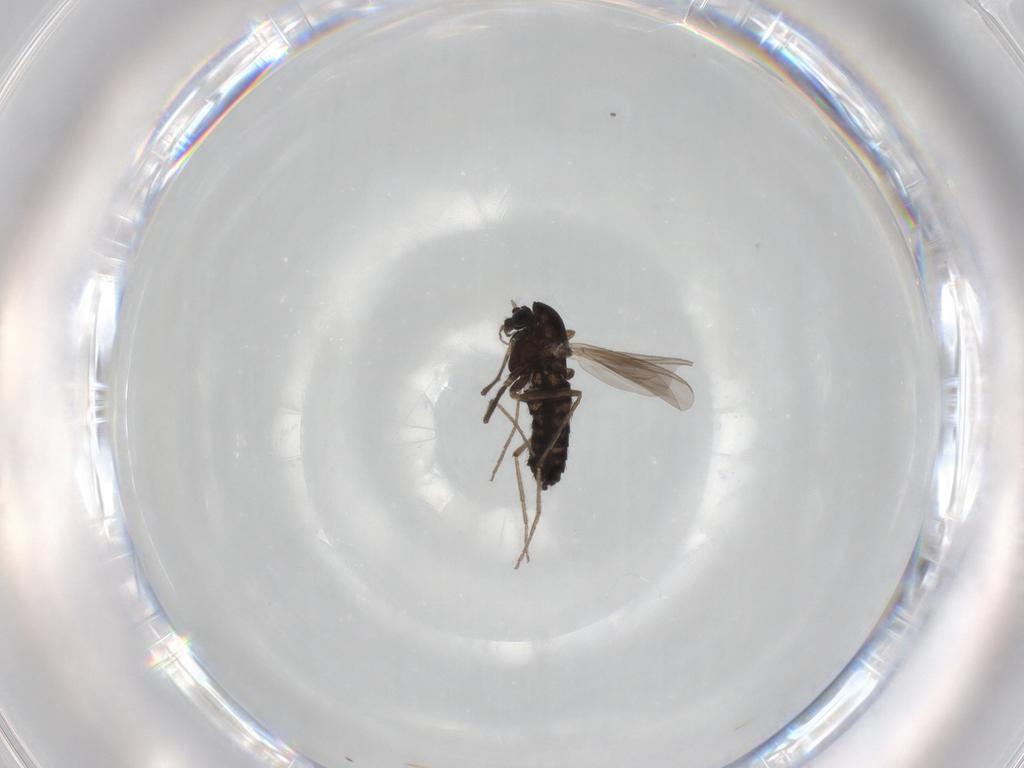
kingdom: Animalia
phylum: Arthropoda
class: Insecta
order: Diptera
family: Chironomidae
